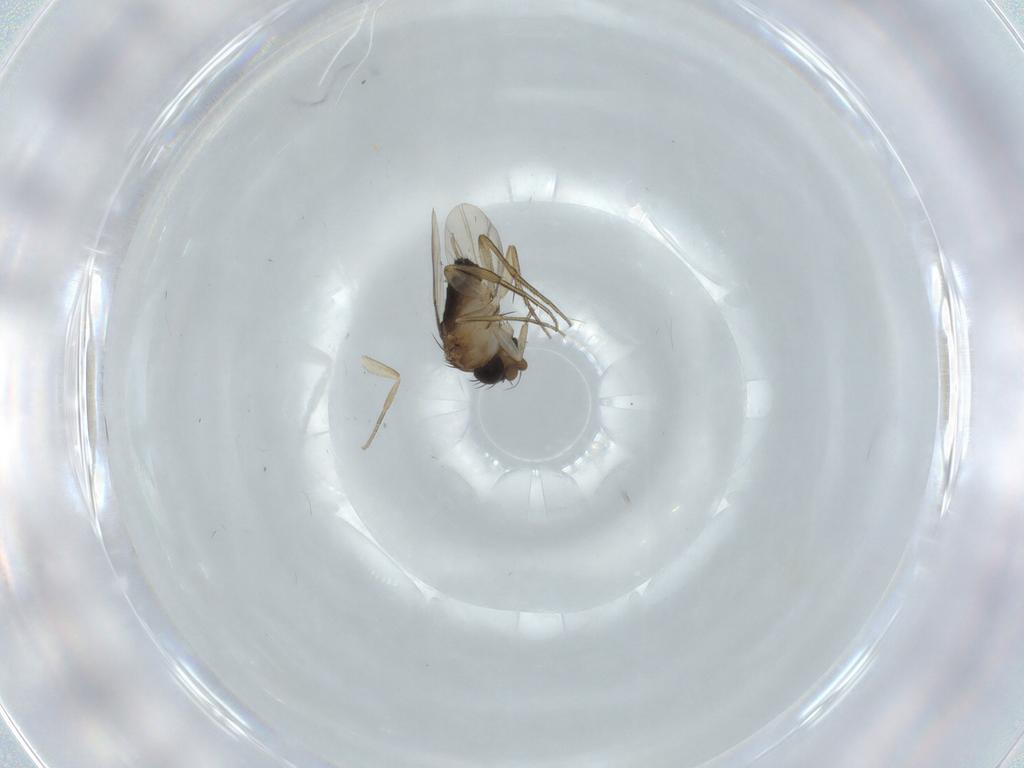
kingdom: Animalia
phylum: Arthropoda
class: Insecta
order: Diptera
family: Phoridae
